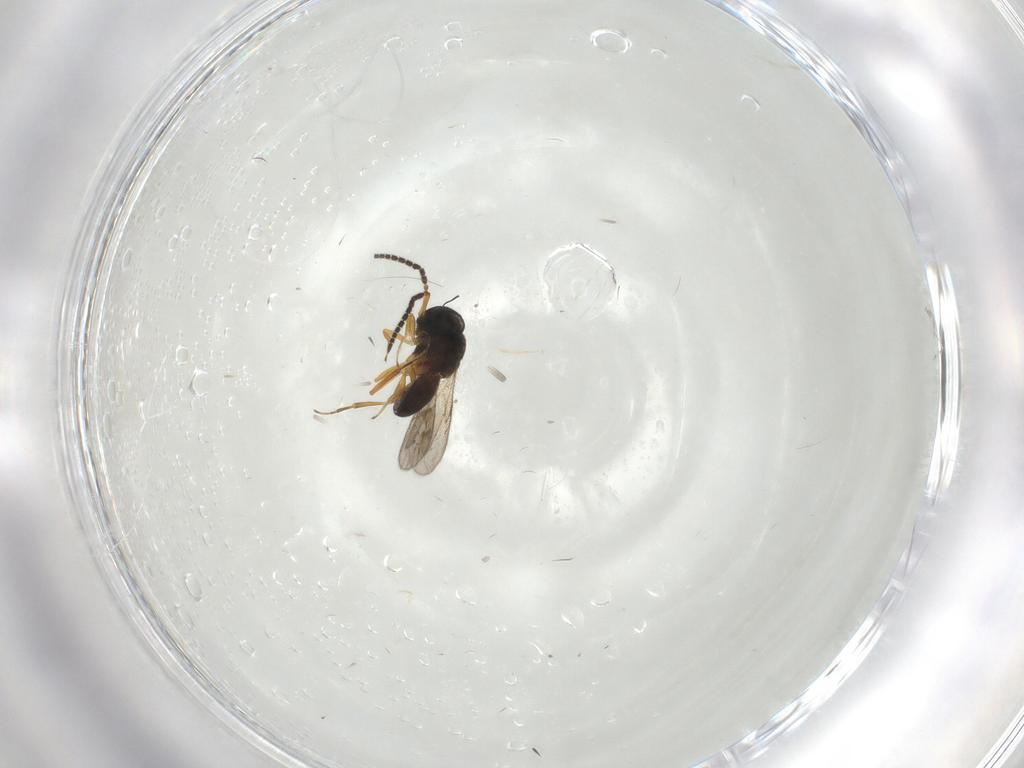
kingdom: Animalia
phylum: Arthropoda
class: Insecta
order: Hymenoptera
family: Scelionidae
